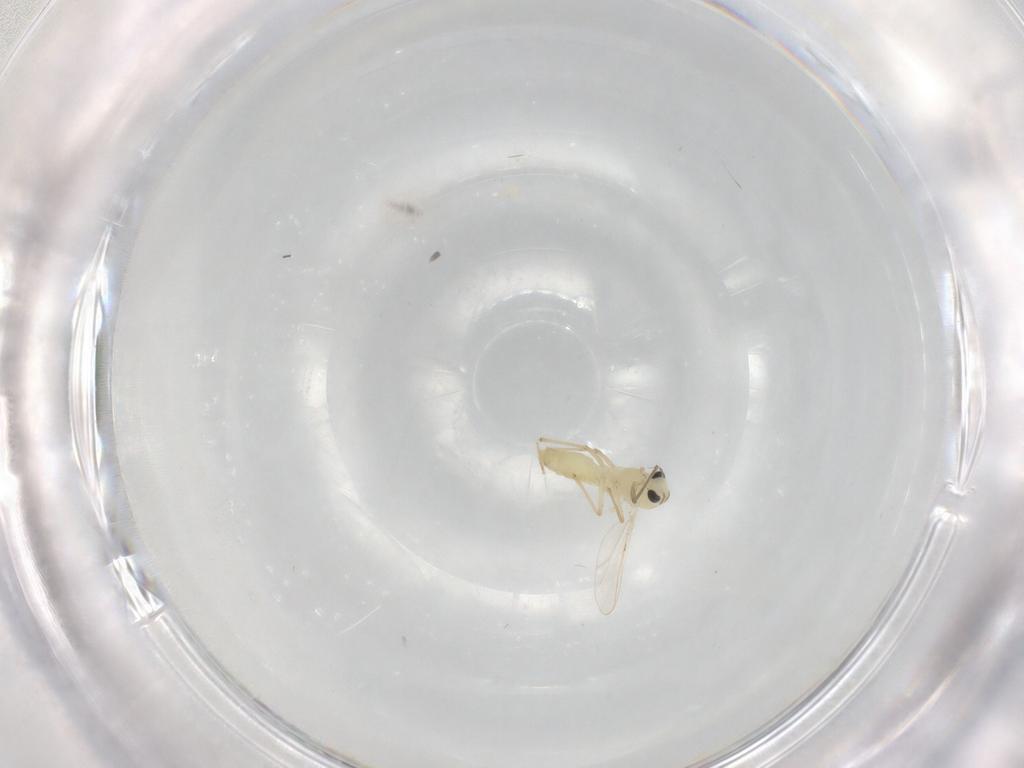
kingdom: Animalia
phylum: Arthropoda
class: Insecta
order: Diptera
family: Chironomidae
